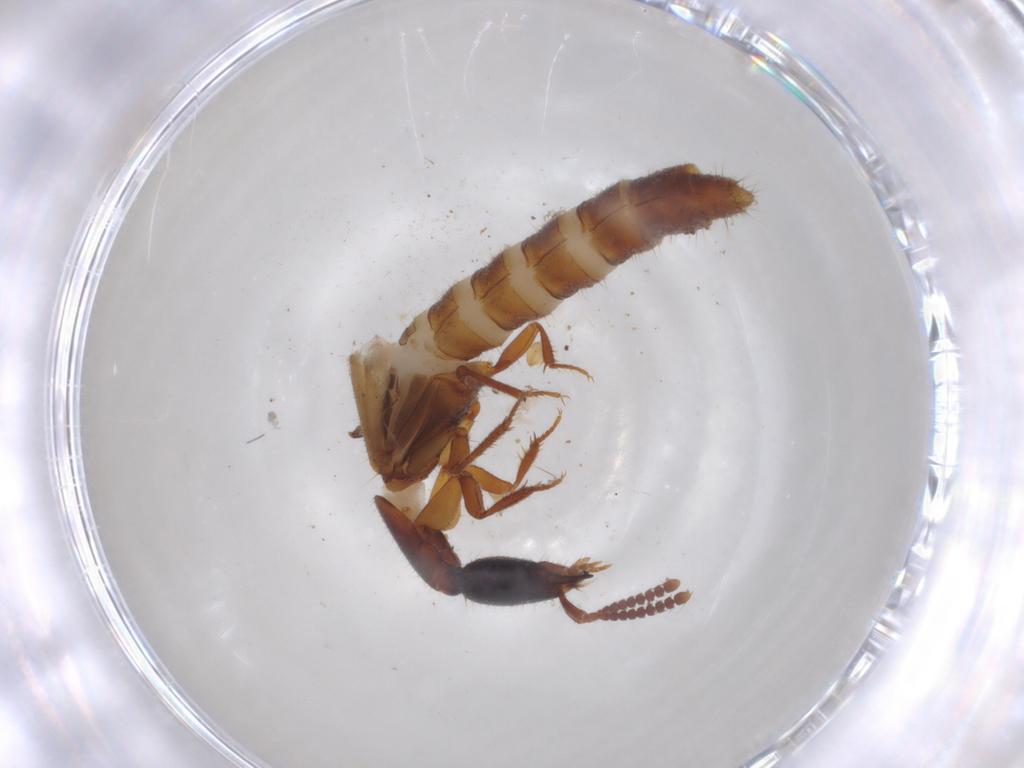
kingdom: Animalia
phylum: Arthropoda
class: Insecta
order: Coleoptera
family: Staphylinidae
